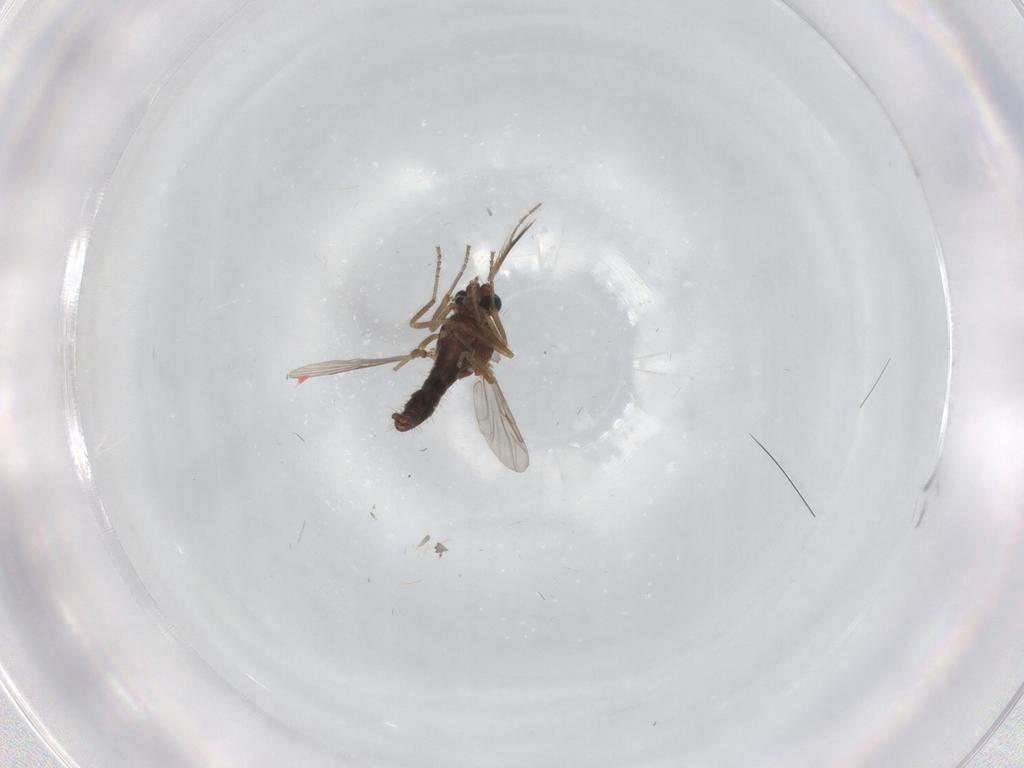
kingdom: Animalia
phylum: Arthropoda
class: Insecta
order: Diptera
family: Ceratopogonidae
